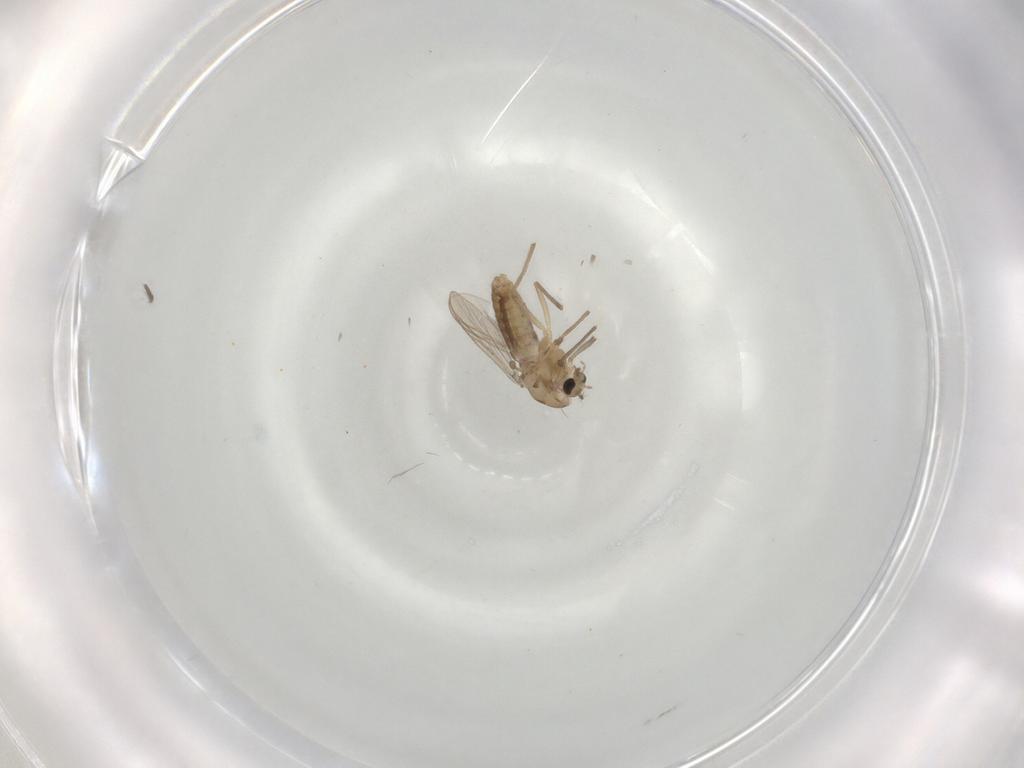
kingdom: Animalia
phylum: Arthropoda
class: Insecta
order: Diptera
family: Chironomidae
